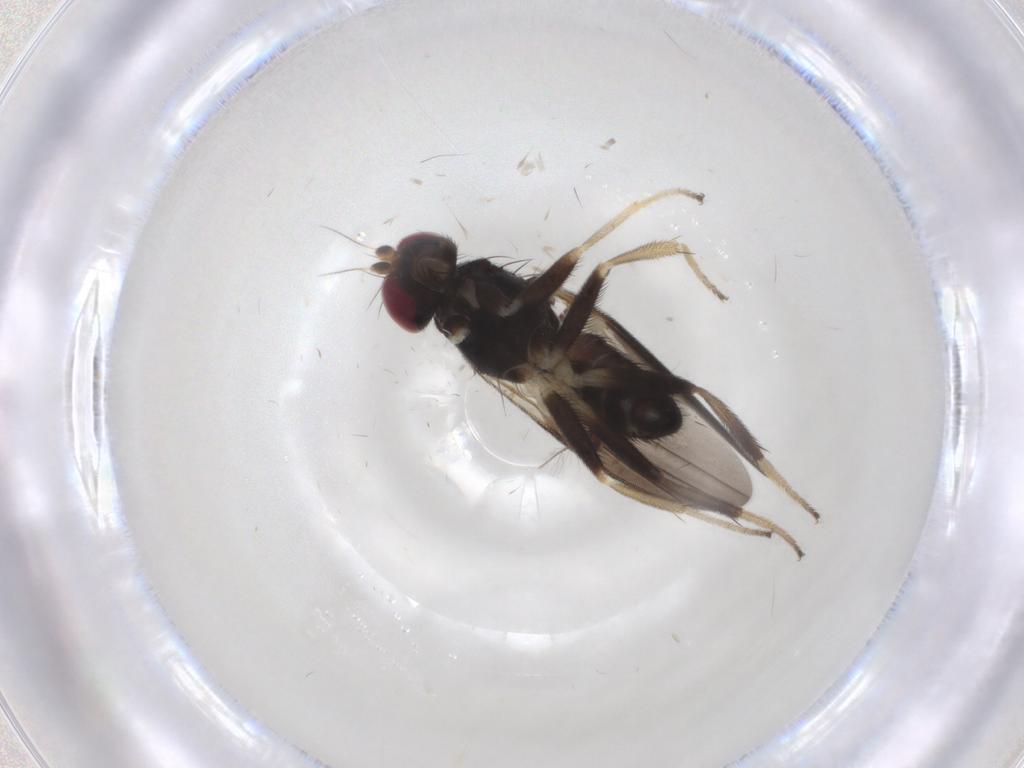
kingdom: Animalia
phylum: Arthropoda
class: Insecta
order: Diptera
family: Clusiidae
